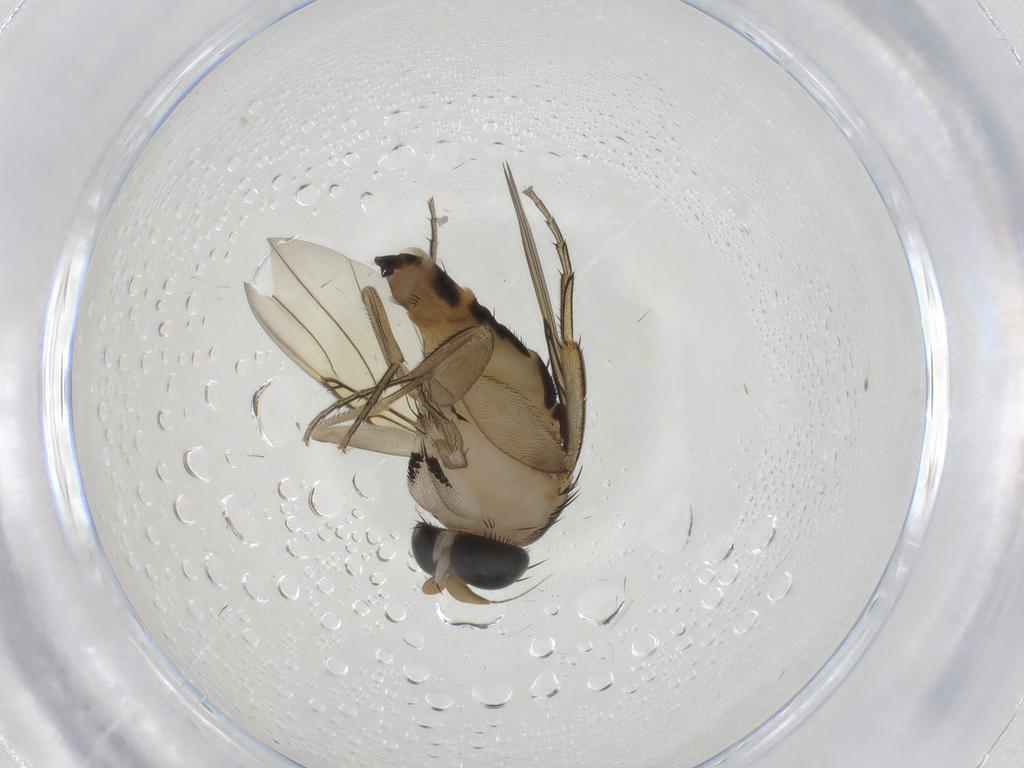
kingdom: Animalia
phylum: Arthropoda
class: Insecta
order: Diptera
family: Phoridae
